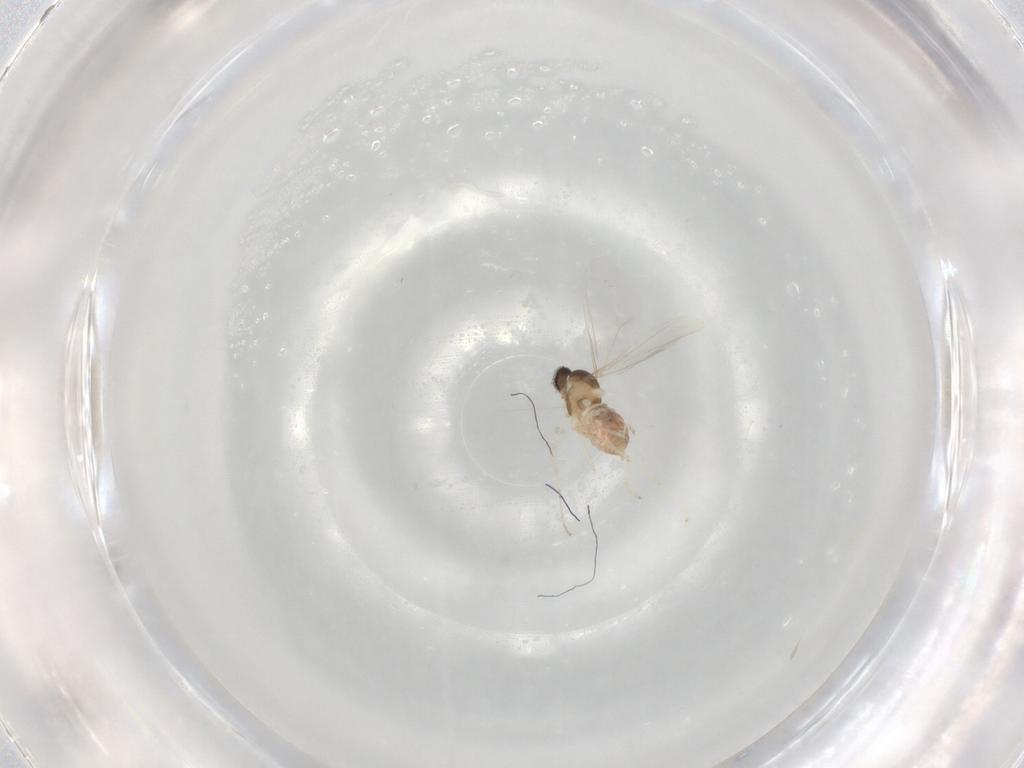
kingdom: Animalia
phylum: Arthropoda
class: Insecta
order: Diptera
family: Cecidomyiidae
